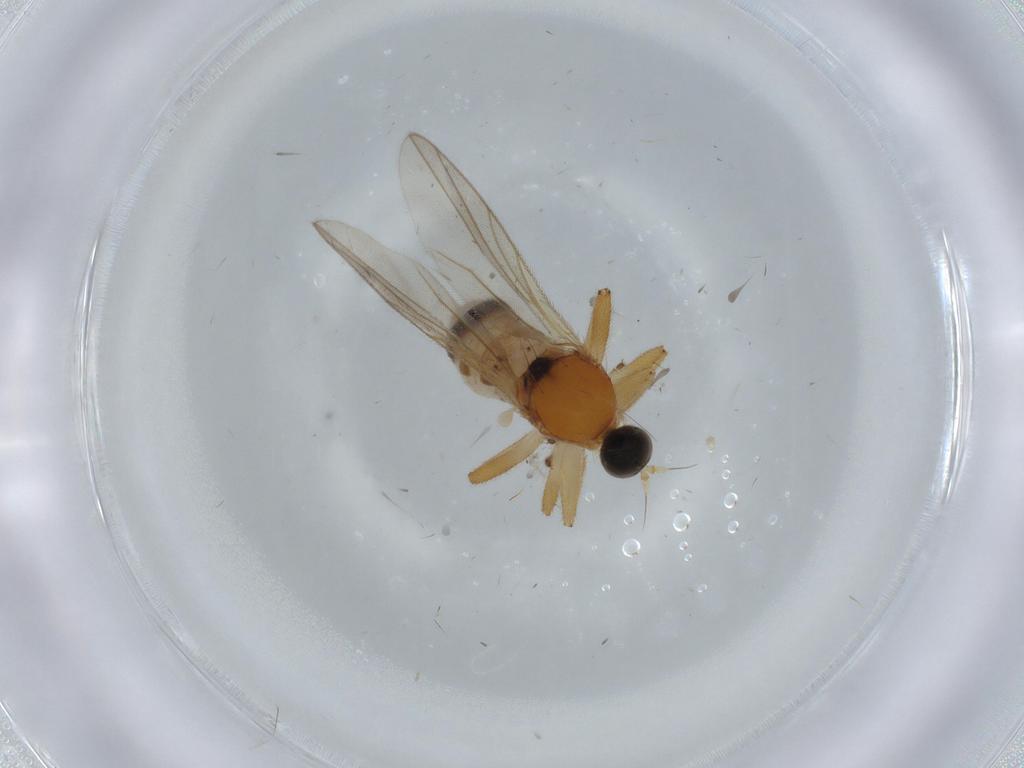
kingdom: Animalia
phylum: Arthropoda
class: Insecta
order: Diptera
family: Hybotidae
